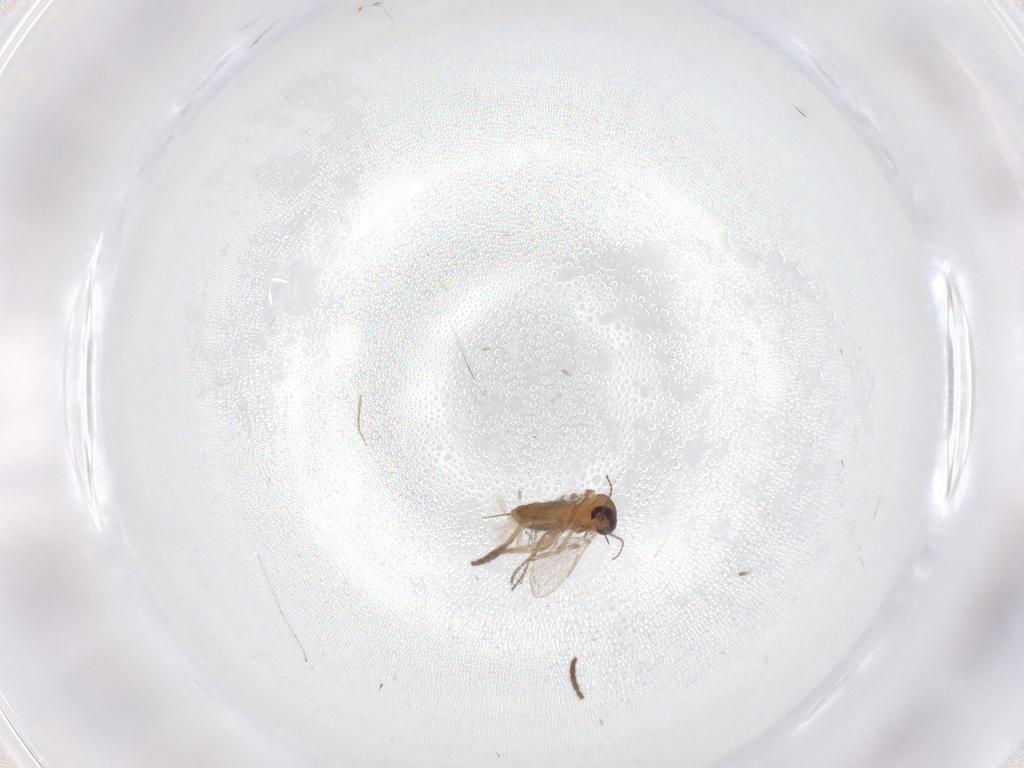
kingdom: Animalia
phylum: Arthropoda
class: Insecta
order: Diptera
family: Ceratopogonidae
